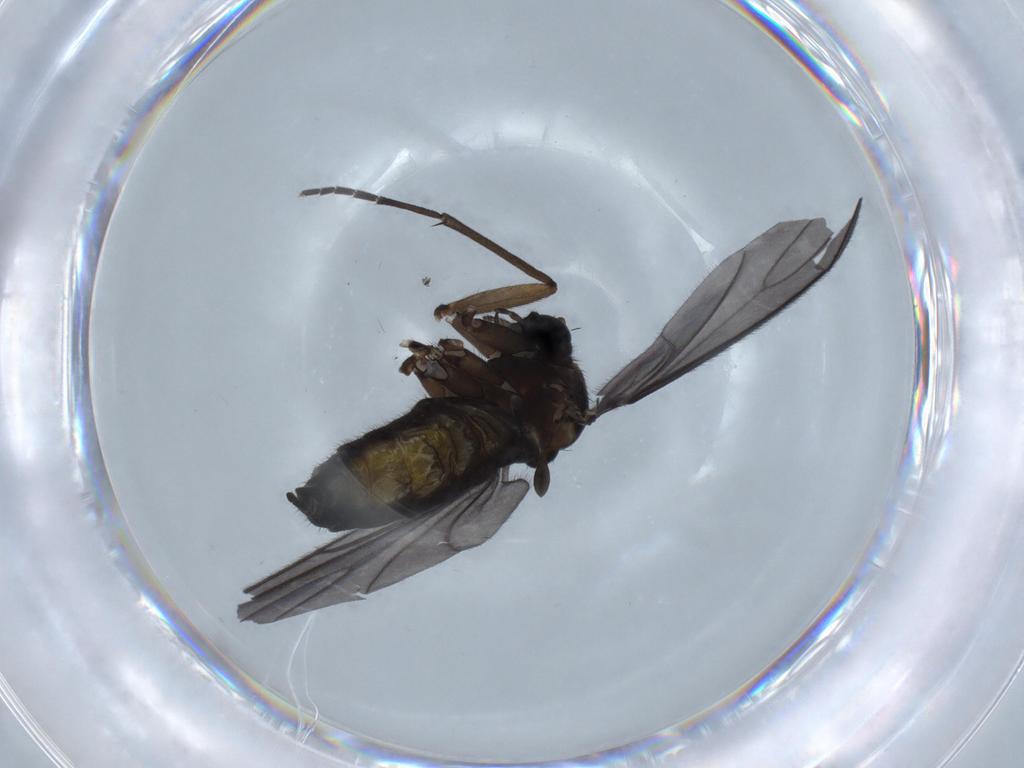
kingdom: Animalia
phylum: Arthropoda
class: Insecta
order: Diptera
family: Sciaridae
